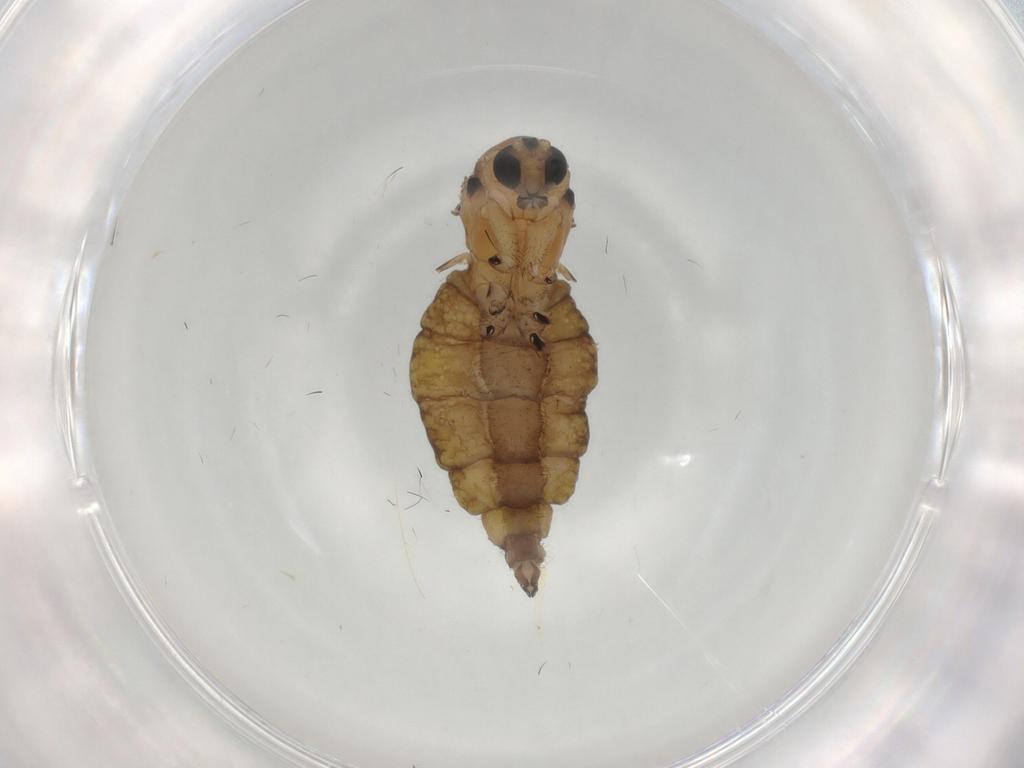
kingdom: Animalia
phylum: Arthropoda
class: Insecta
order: Diptera
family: Sciaridae
